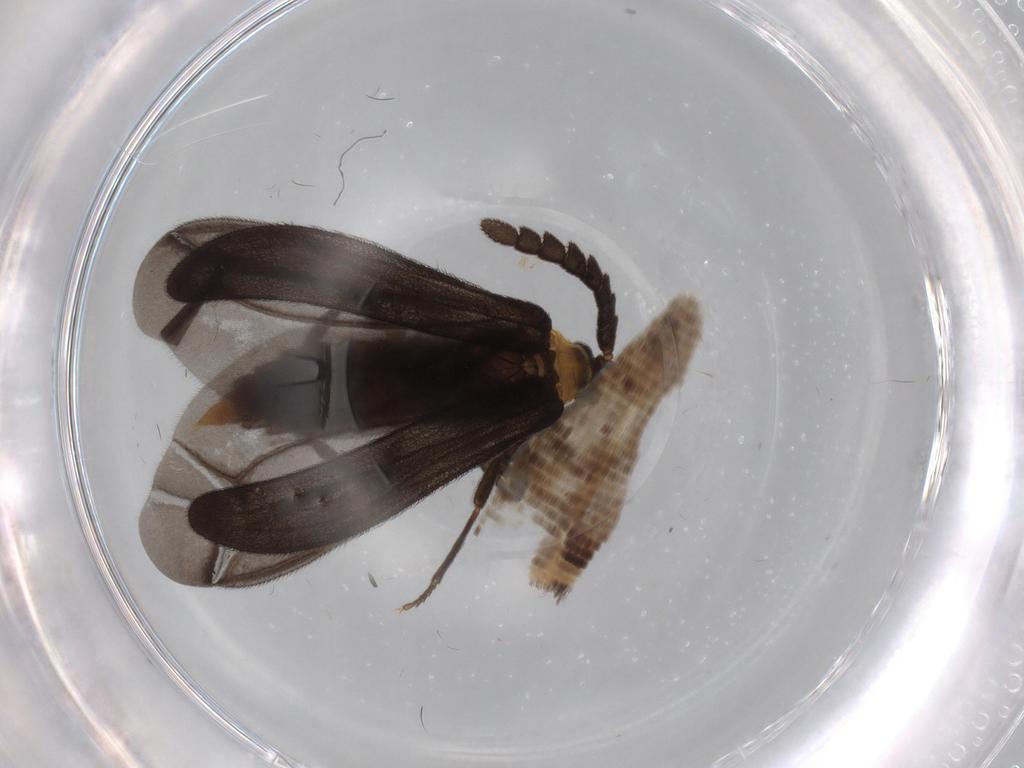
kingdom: Animalia
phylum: Arthropoda
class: Insecta
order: Coleoptera
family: Lycidae
